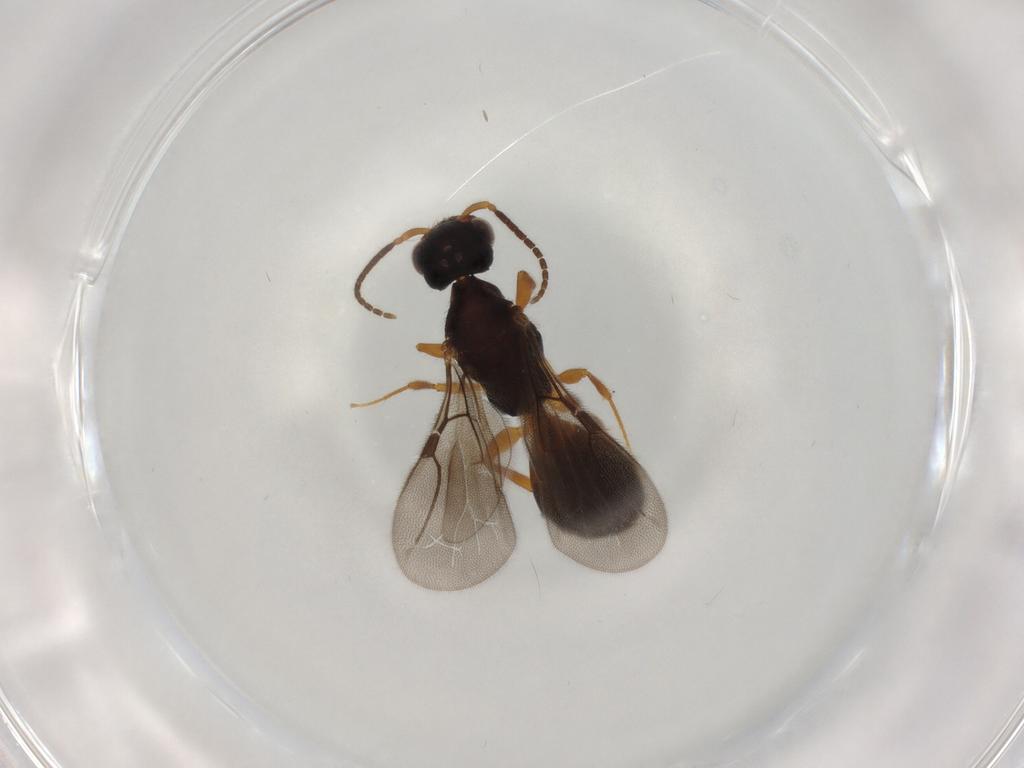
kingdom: Animalia
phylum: Arthropoda
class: Insecta
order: Hymenoptera
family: Bethylidae
